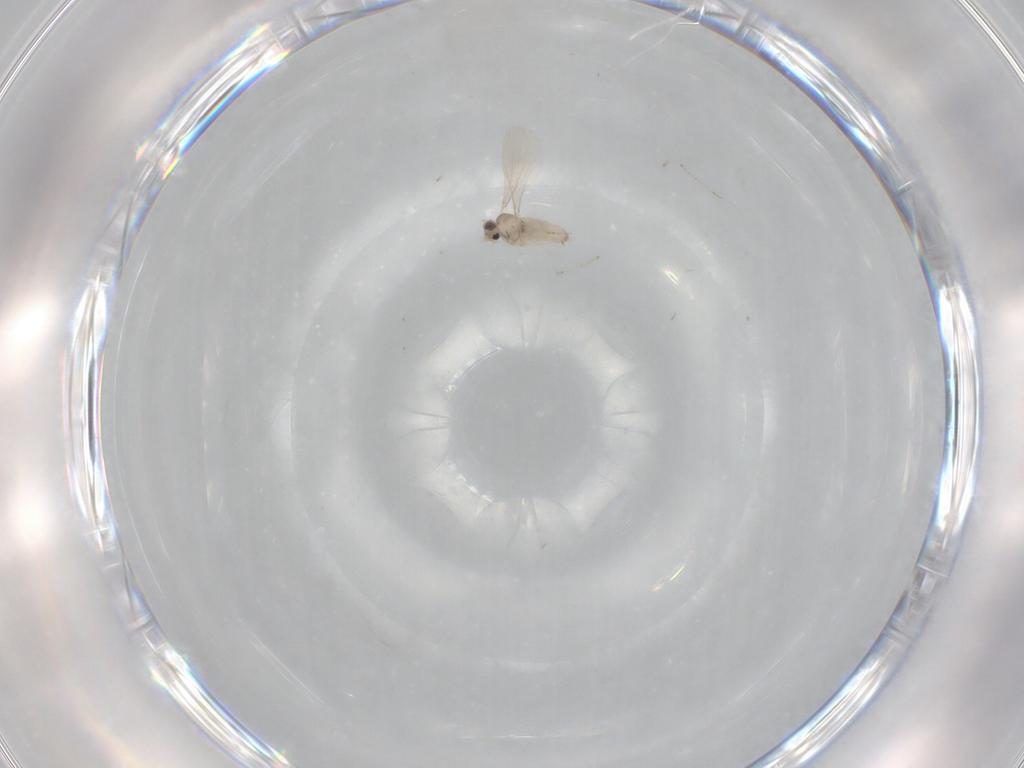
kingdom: Animalia
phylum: Arthropoda
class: Insecta
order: Diptera
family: Cecidomyiidae
